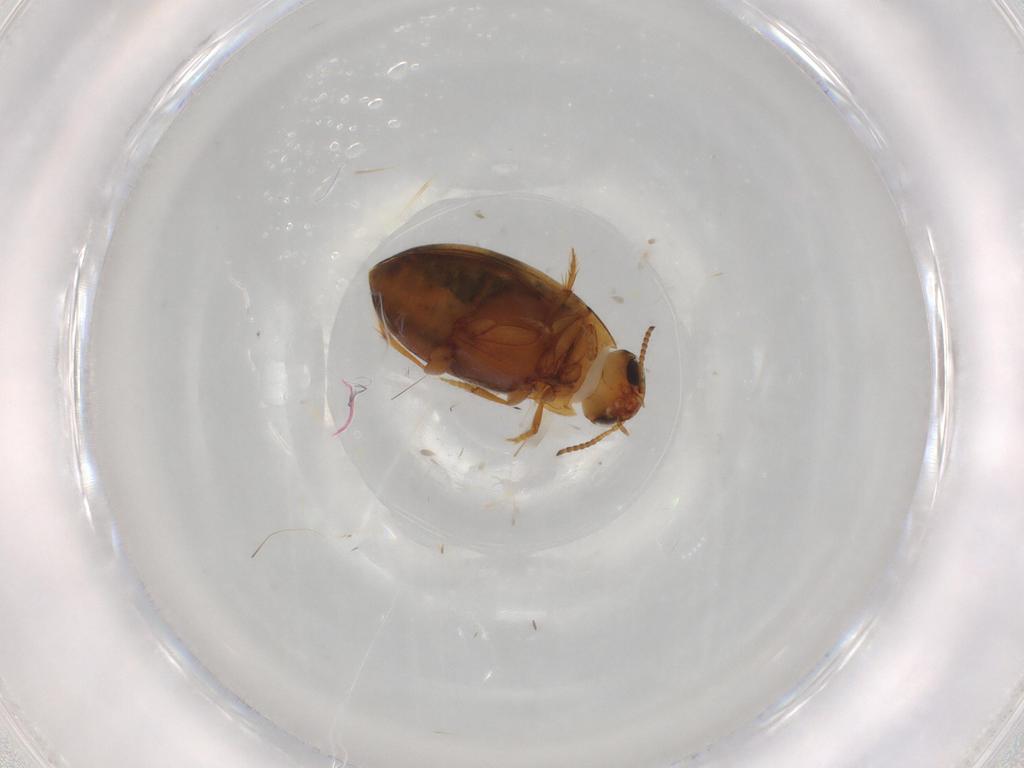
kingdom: Animalia
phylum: Arthropoda
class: Insecta
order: Coleoptera
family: Dytiscidae
